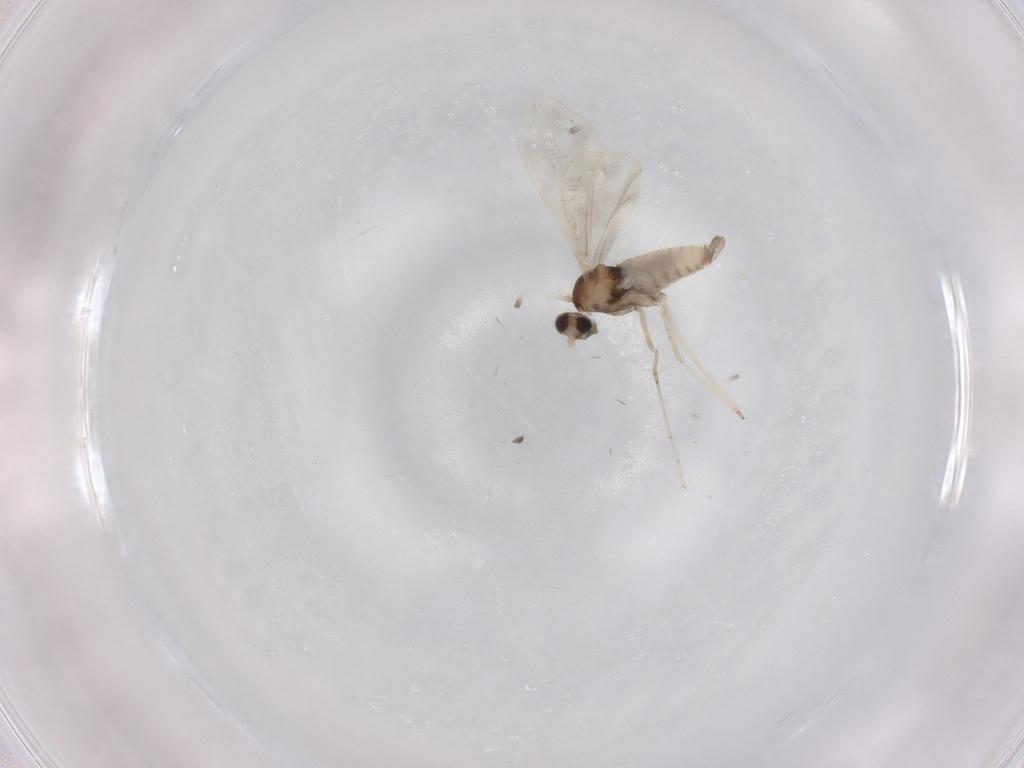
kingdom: Animalia
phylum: Arthropoda
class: Insecta
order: Diptera
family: Cecidomyiidae
